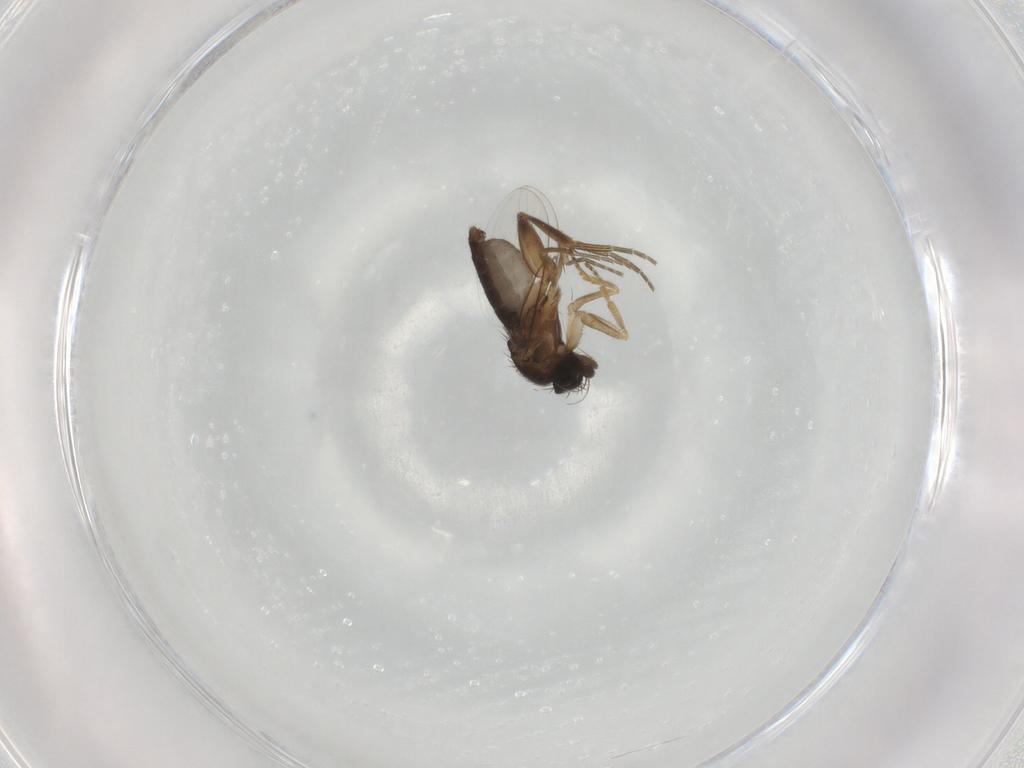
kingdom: Animalia
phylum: Arthropoda
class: Insecta
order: Diptera
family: Phoridae
